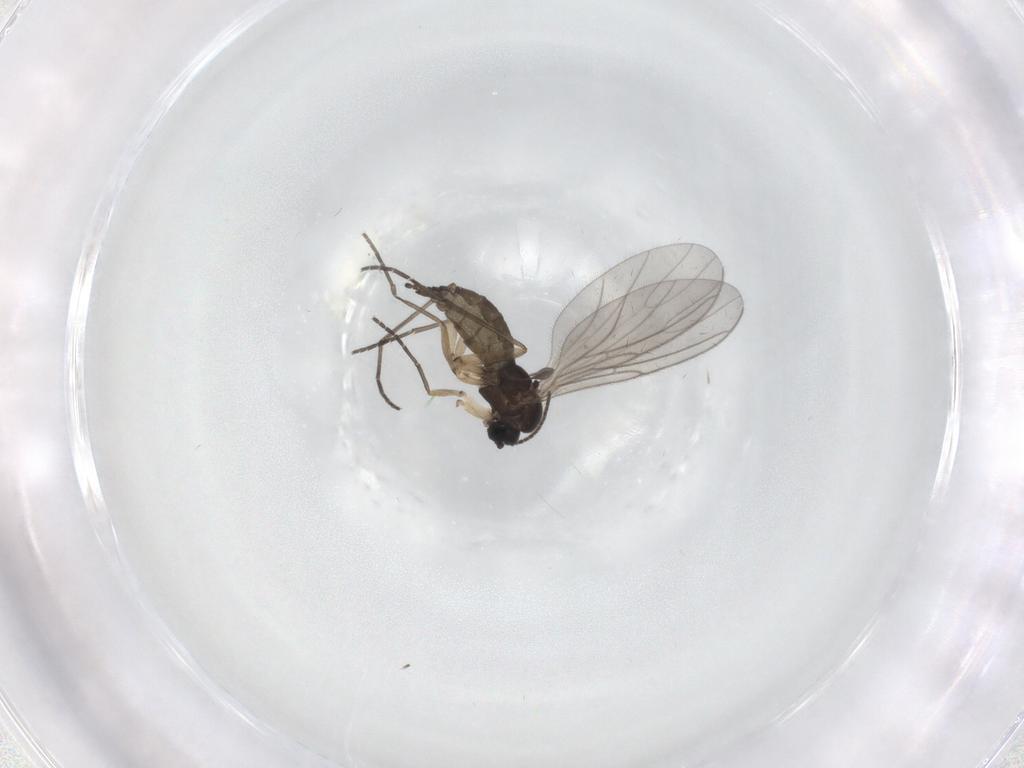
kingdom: Animalia
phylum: Arthropoda
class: Insecta
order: Diptera
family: Sciaridae
